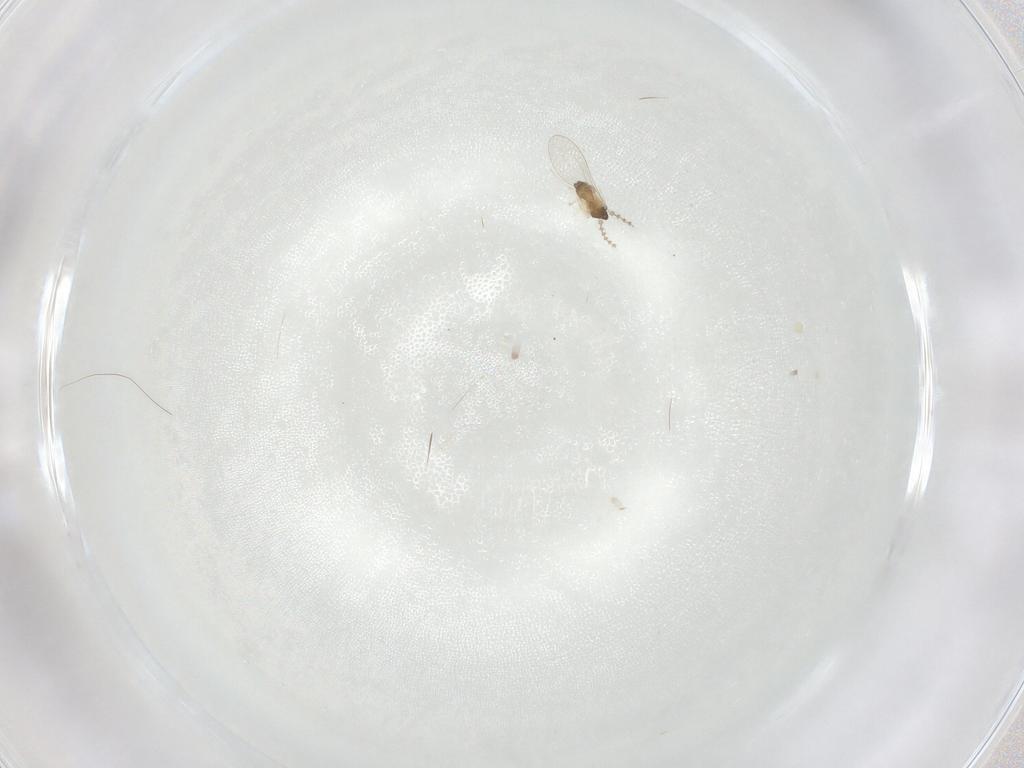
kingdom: Animalia
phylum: Arthropoda
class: Insecta
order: Diptera
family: Cecidomyiidae
